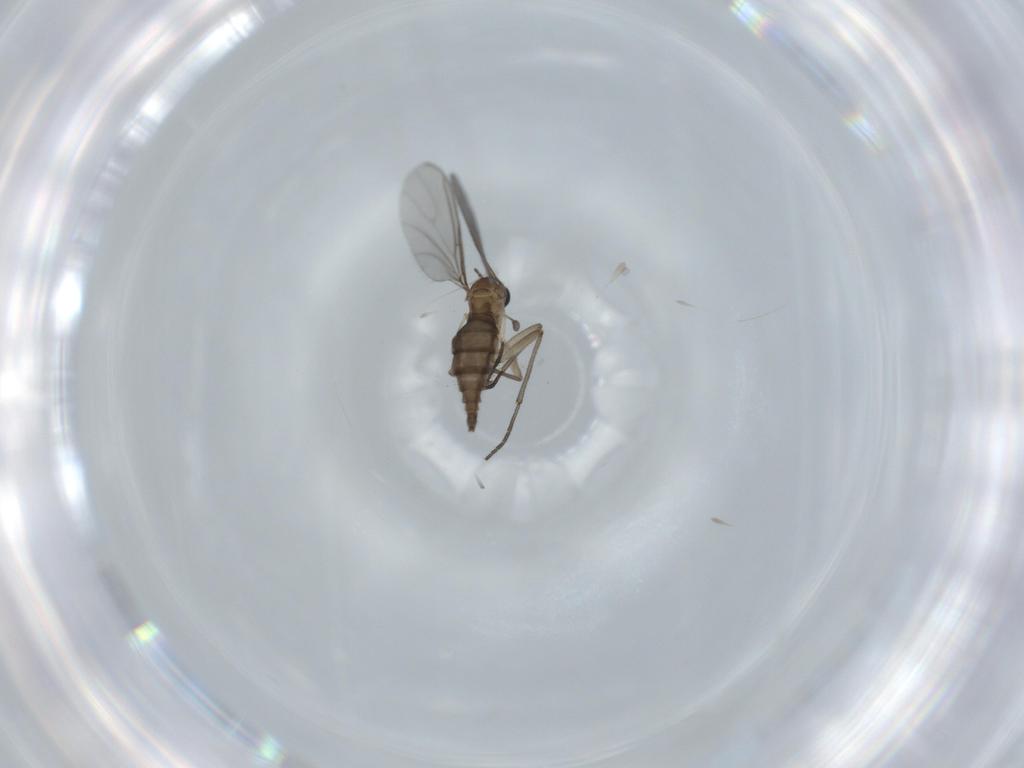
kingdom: Animalia
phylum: Arthropoda
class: Insecta
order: Diptera
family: Sciaridae
